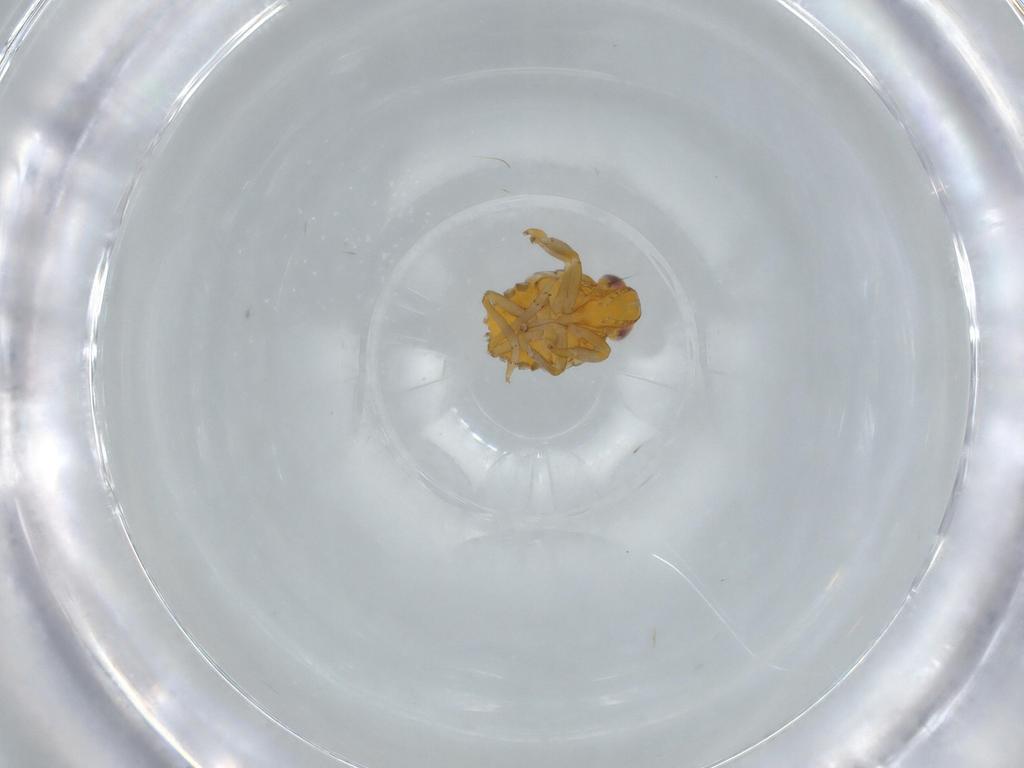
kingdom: Animalia
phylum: Arthropoda
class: Insecta
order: Hemiptera
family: Issidae
